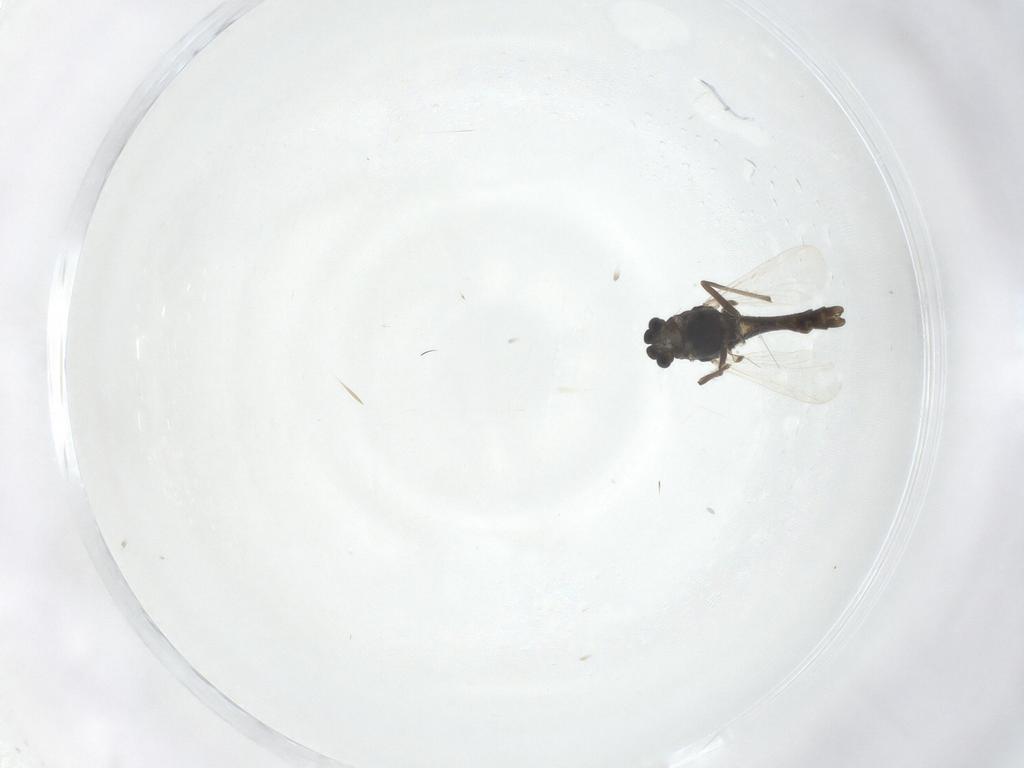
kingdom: Animalia
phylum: Arthropoda
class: Insecta
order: Diptera
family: Chironomidae
